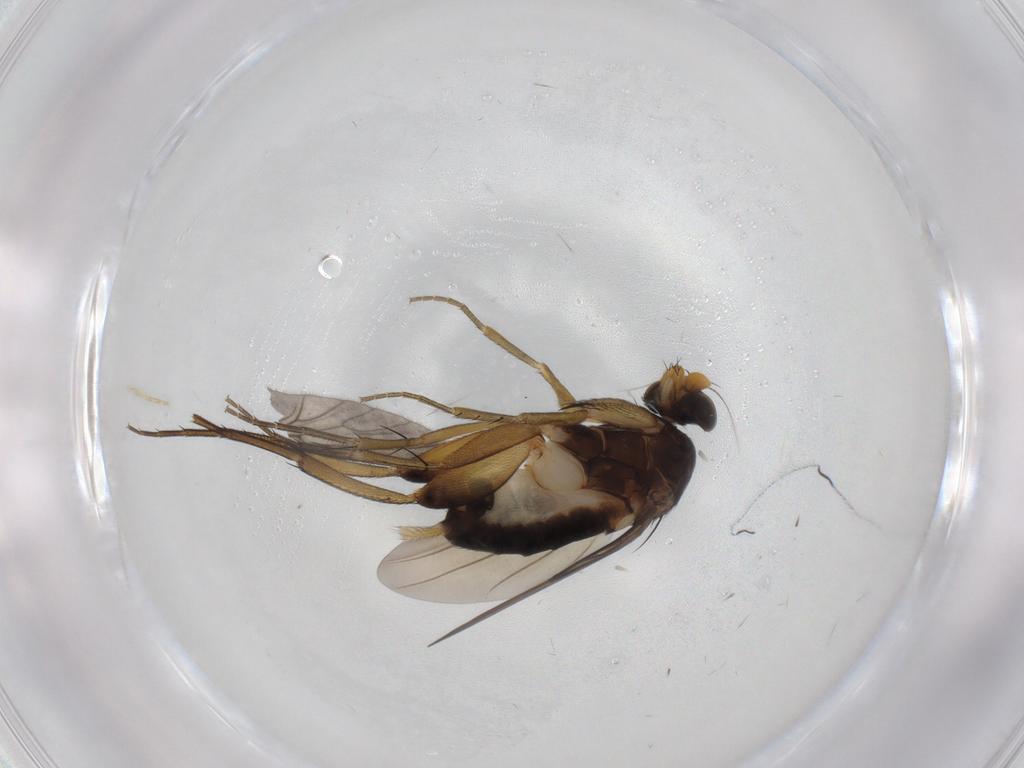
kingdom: Animalia
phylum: Arthropoda
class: Insecta
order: Diptera
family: Phoridae
